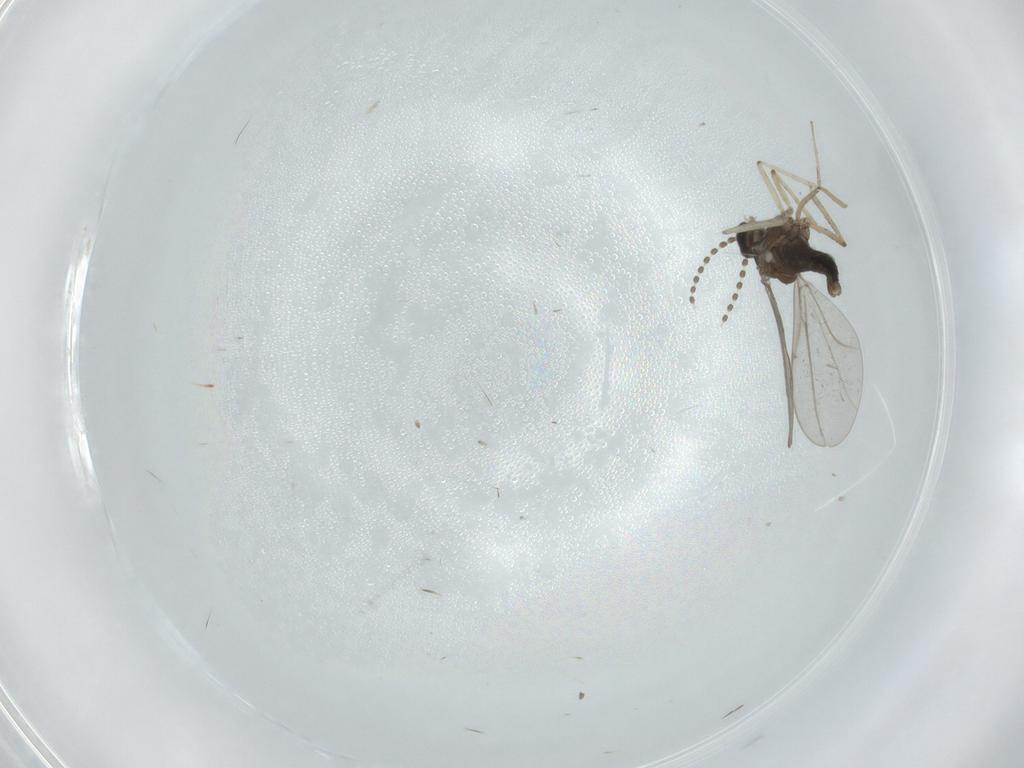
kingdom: Animalia
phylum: Arthropoda
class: Insecta
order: Diptera
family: Cecidomyiidae
